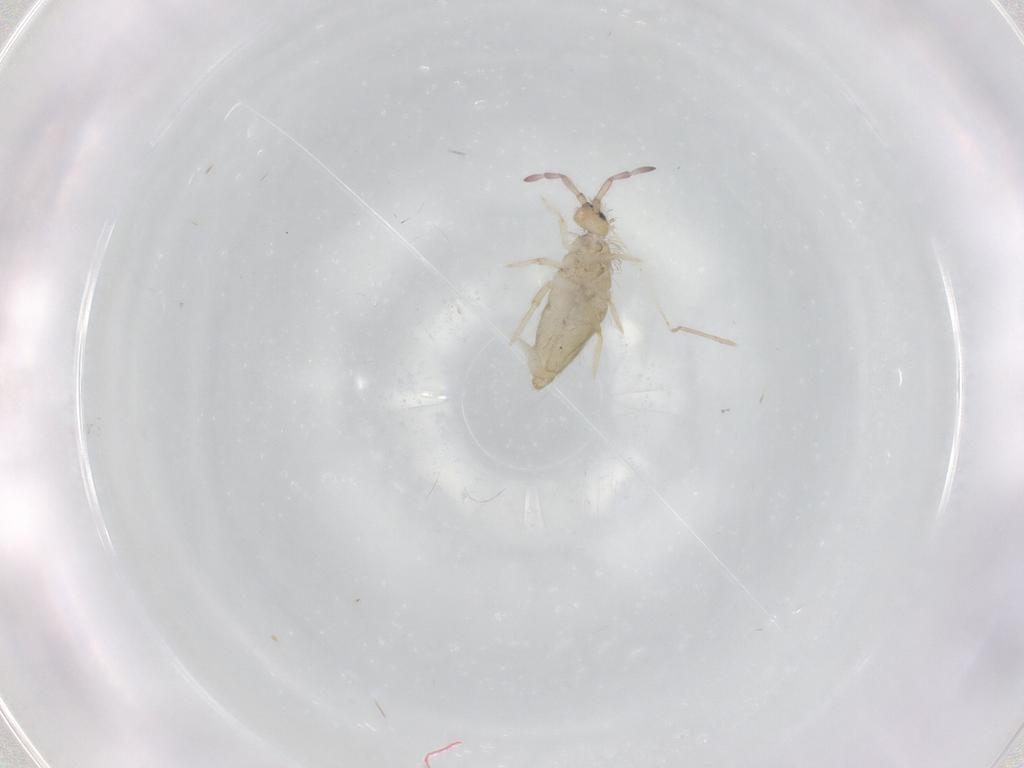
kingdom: Animalia
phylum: Arthropoda
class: Collembola
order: Entomobryomorpha
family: Entomobryidae
